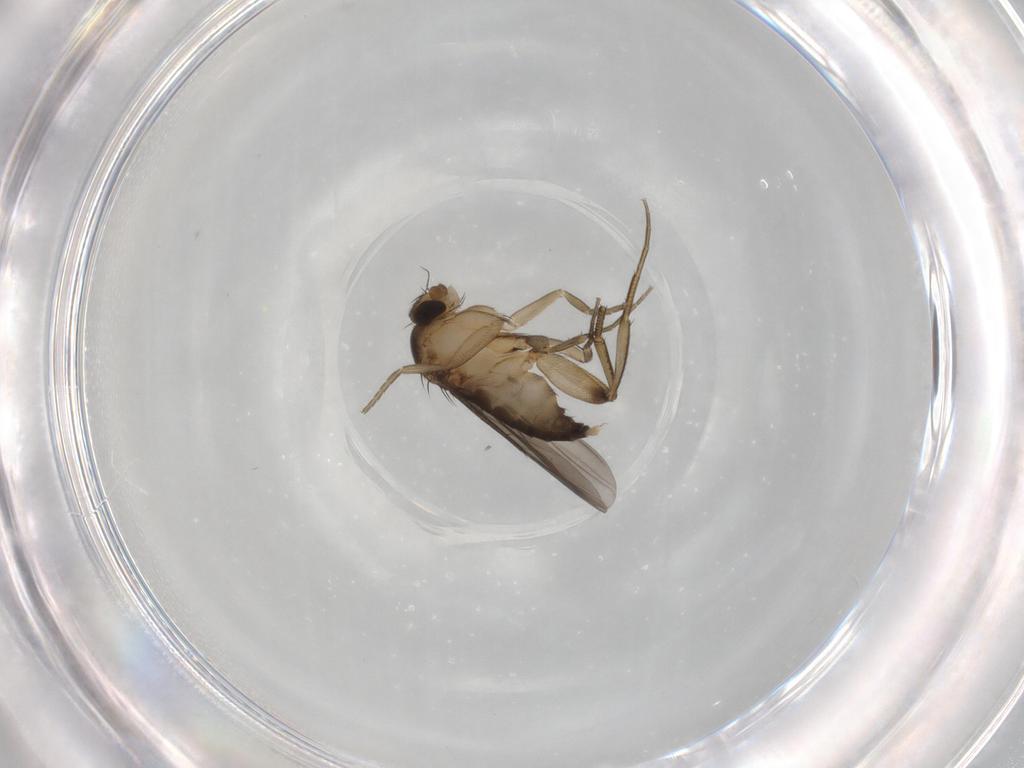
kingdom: Animalia
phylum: Arthropoda
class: Insecta
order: Diptera
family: Phoridae
